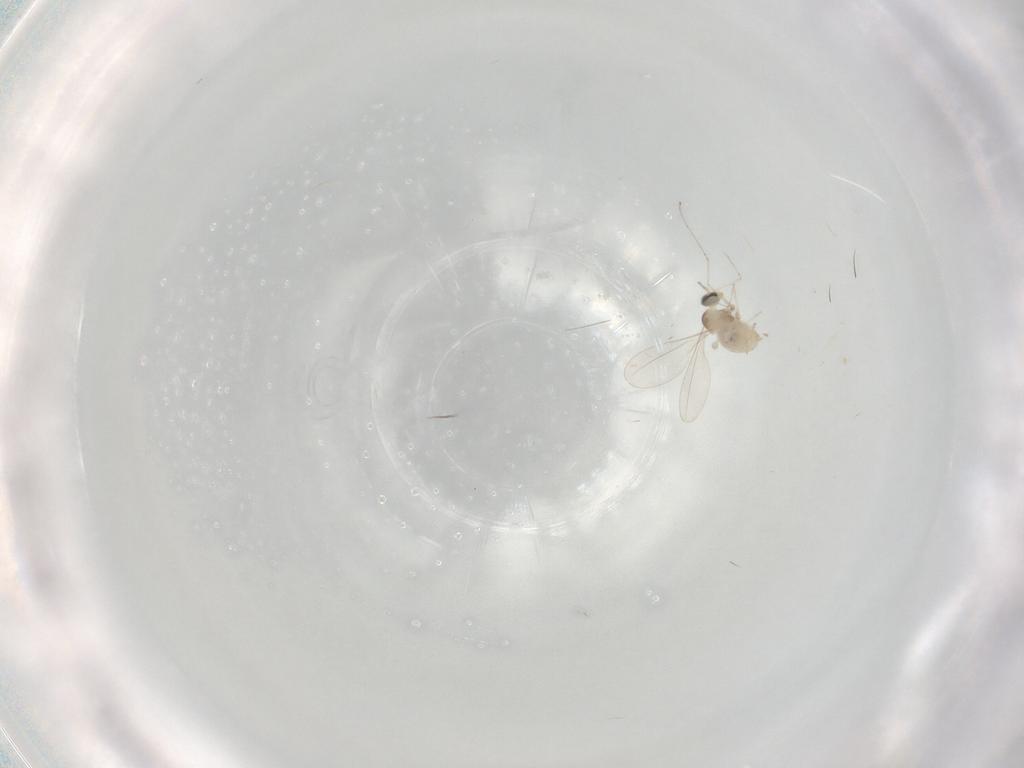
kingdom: Animalia
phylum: Arthropoda
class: Insecta
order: Diptera
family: Cecidomyiidae
